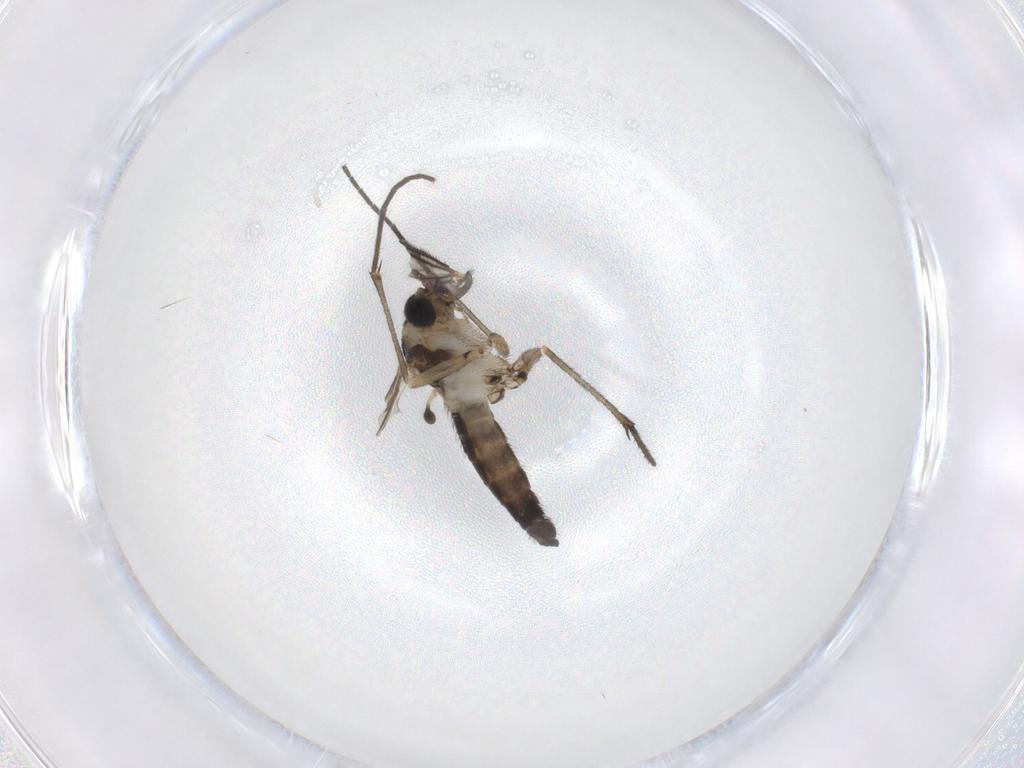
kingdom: Animalia
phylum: Arthropoda
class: Insecta
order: Diptera
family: Sciaridae
